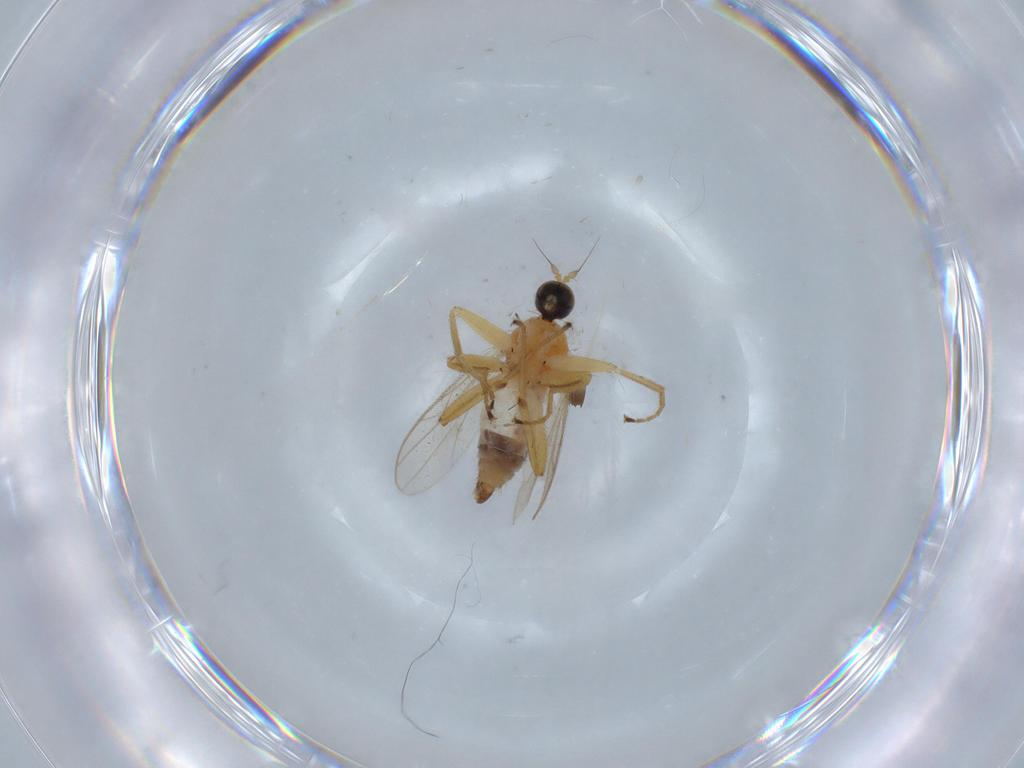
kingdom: Animalia
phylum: Arthropoda
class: Insecta
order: Diptera
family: Hybotidae
